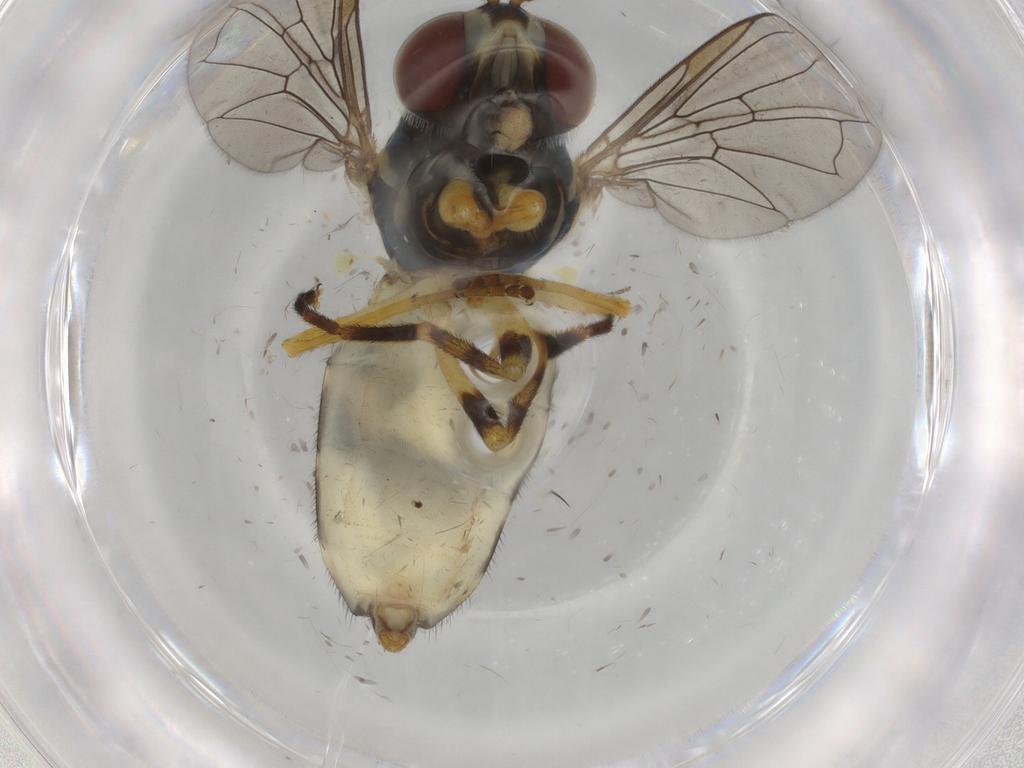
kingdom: Animalia
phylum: Arthropoda
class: Insecta
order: Diptera
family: Syrphidae
